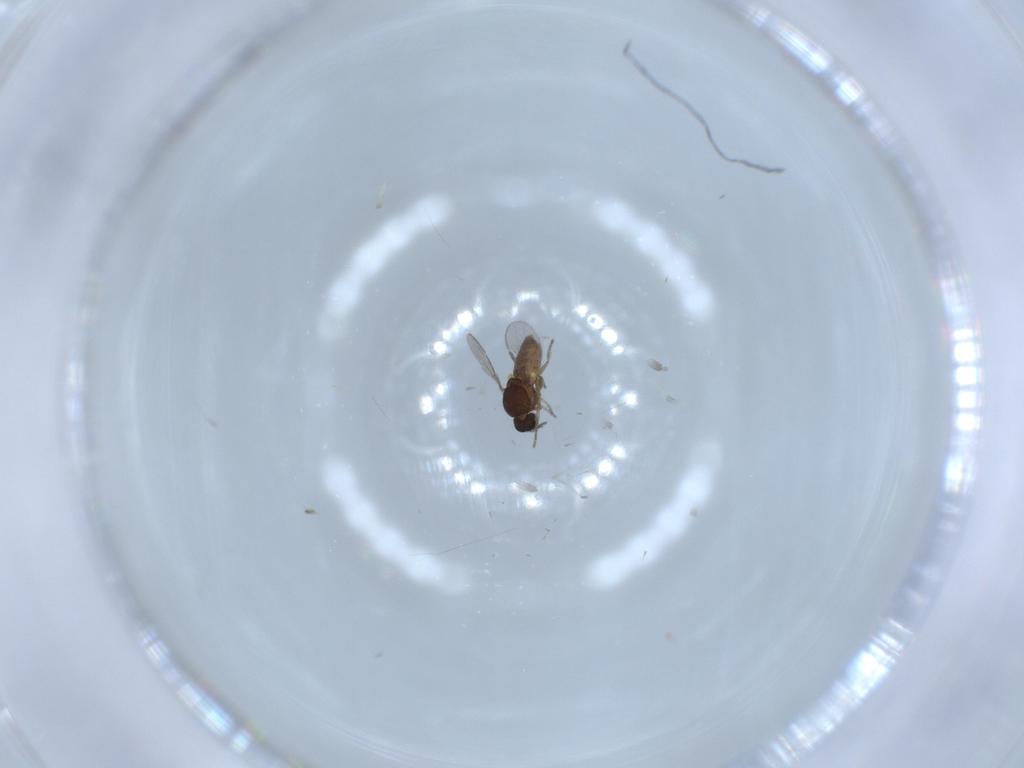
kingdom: Animalia
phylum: Arthropoda
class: Insecta
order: Diptera
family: Ceratopogonidae
